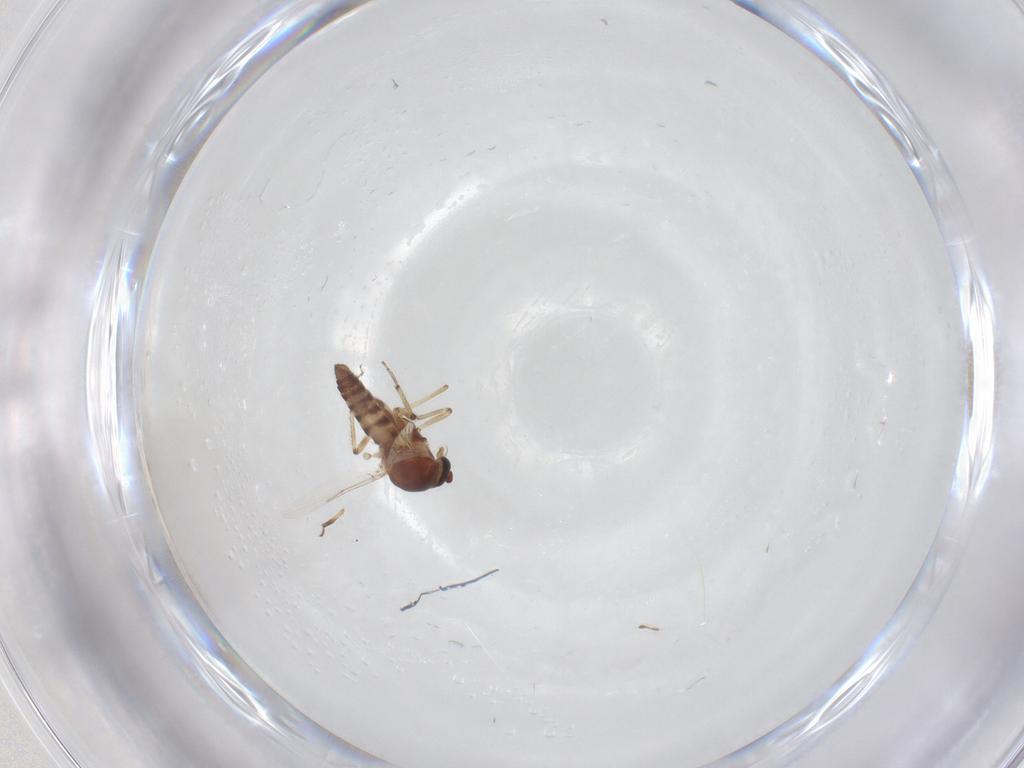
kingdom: Animalia
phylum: Arthropoda
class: Insecta
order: Diptera
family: Ceratopogonidae
